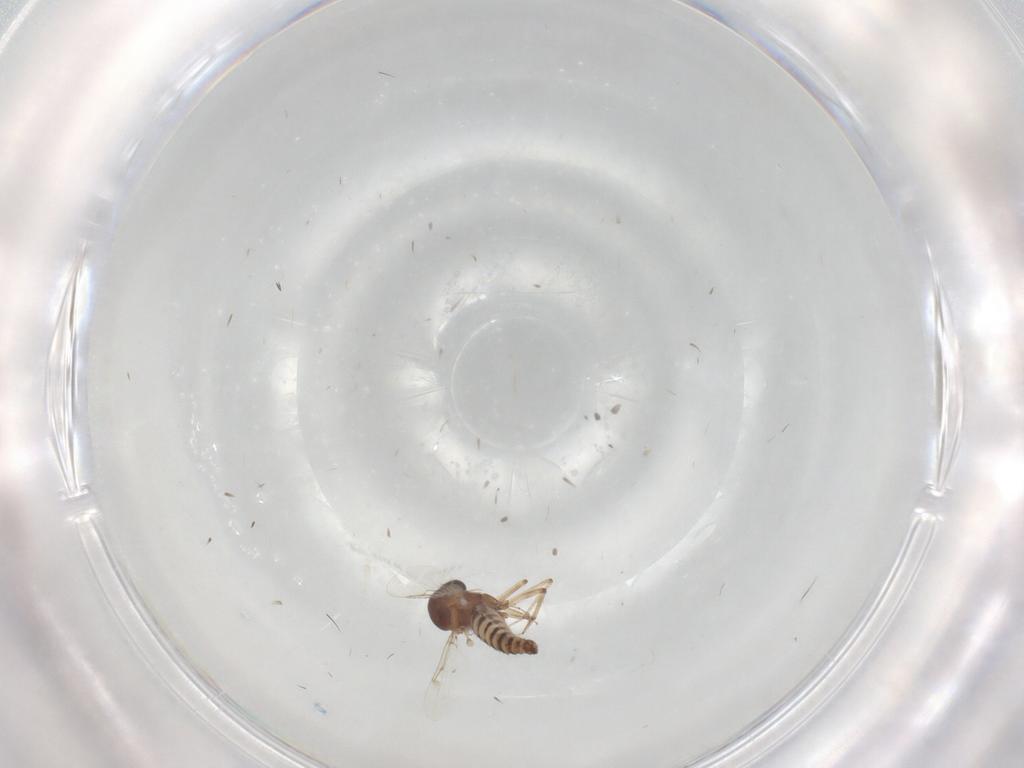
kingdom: Animalia
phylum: Arthropoda
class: Insecta
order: Diptera
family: Ceratopogonidae
